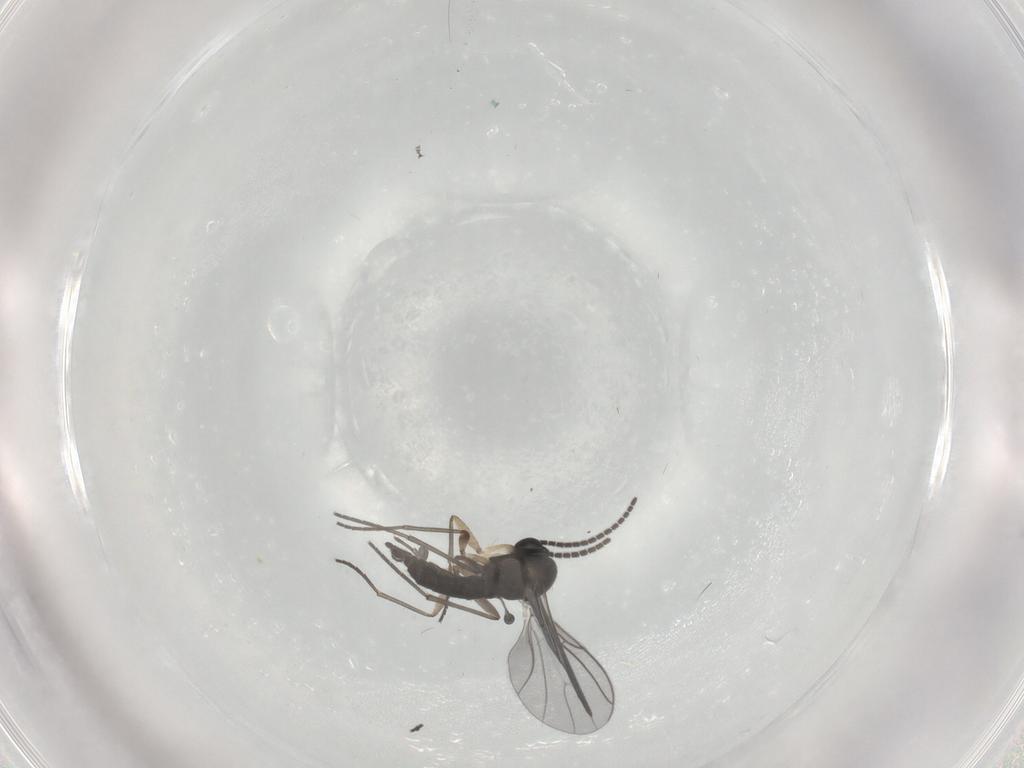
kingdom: Animalia
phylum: Arthropoda
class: Insecta
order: Diptera
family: Sciaridae
